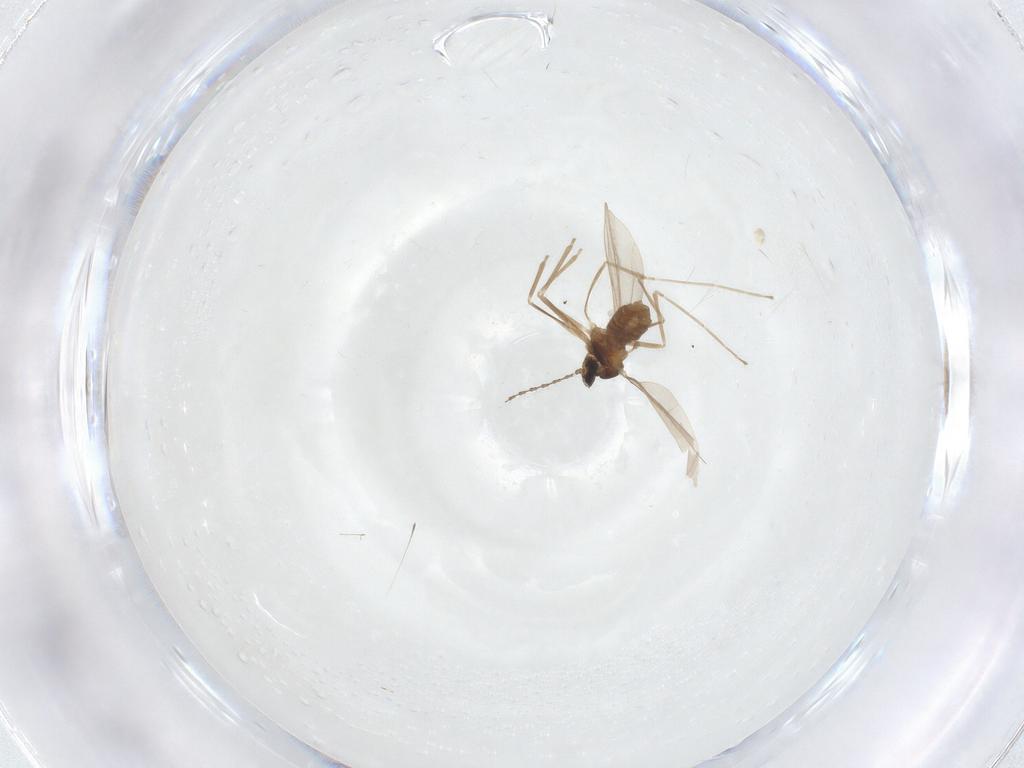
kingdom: Animalia
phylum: Arthropoda
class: Insecta
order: Diptera
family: Cecidomyiidae
